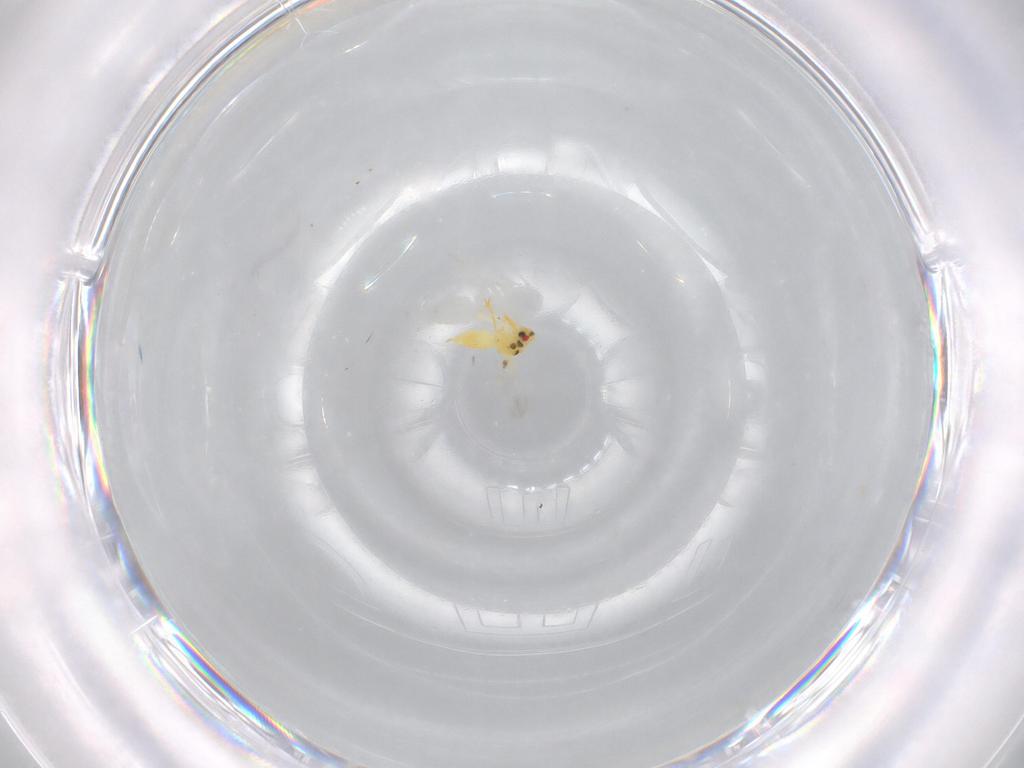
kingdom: Animalia
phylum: Arthropoda
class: Insecta
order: Hemiptera
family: Aleyrodidae
